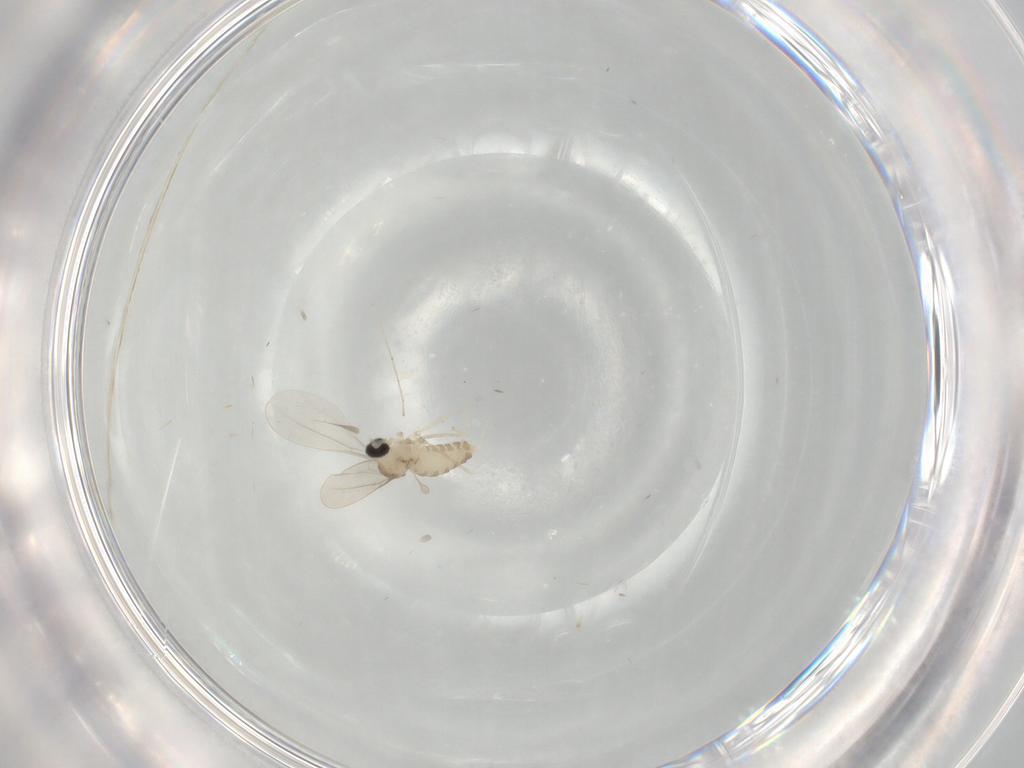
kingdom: Animalia
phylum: Arthropoda
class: Insecta
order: Diptera
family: Cecidomyiidae
